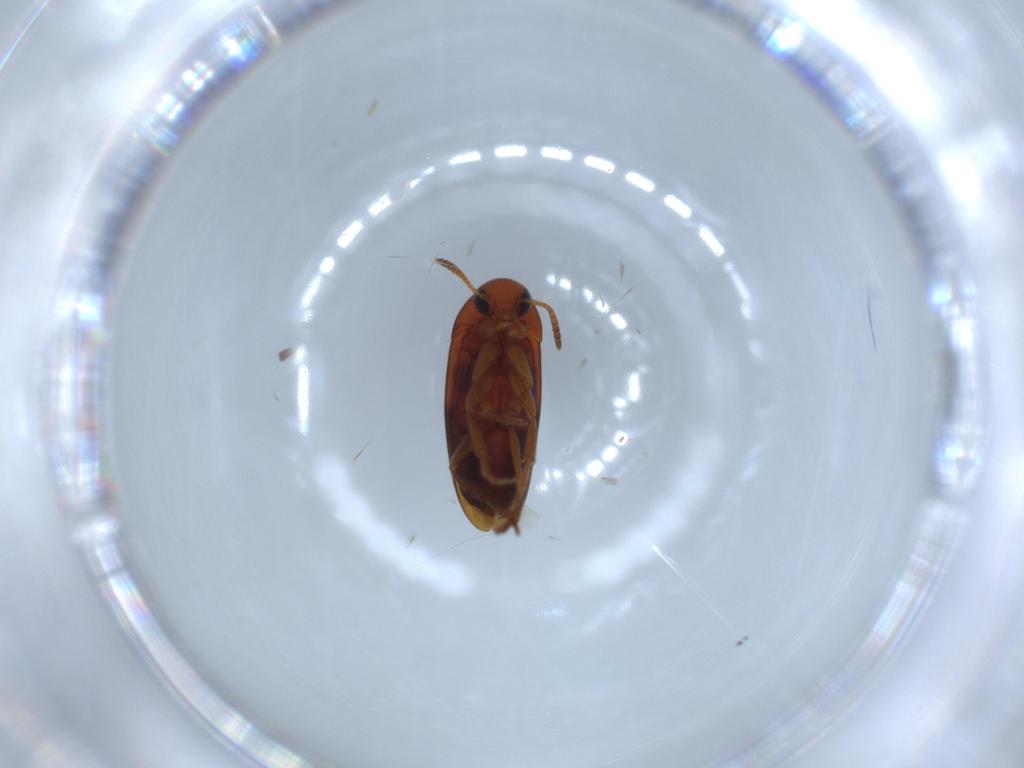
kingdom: Animalia
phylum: Arthropoda
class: Insecta
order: Coleoptera
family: Scraptiidae
